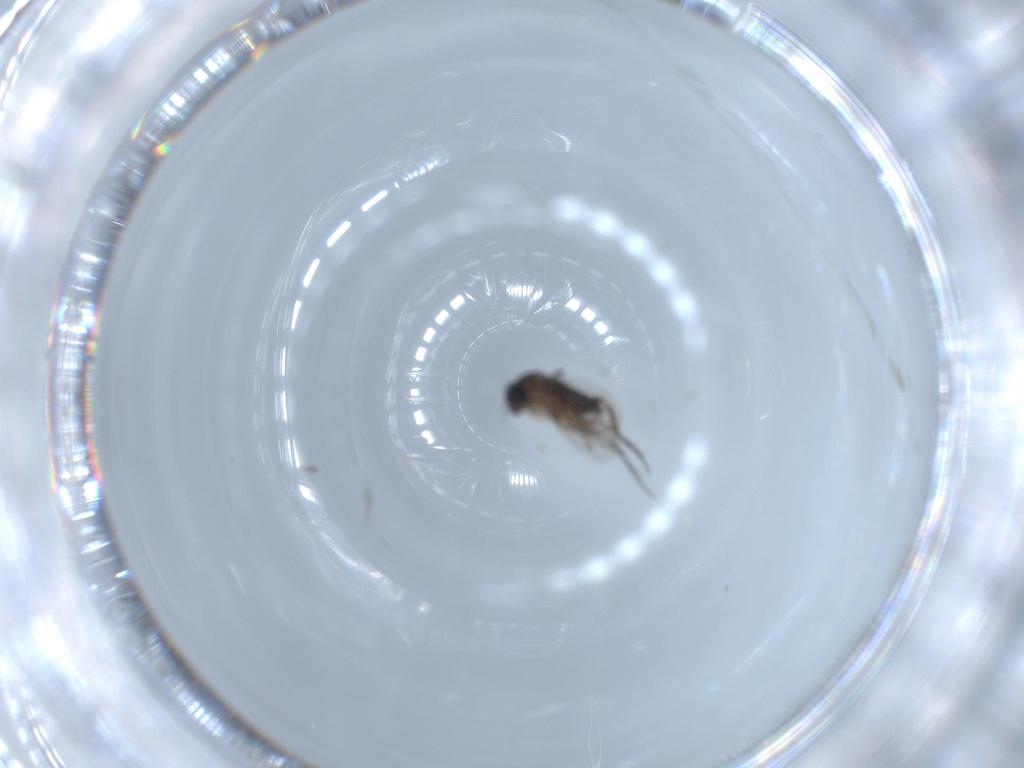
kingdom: Animalia
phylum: Arthropoda
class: Insecta
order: Diptera
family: Phoridae
